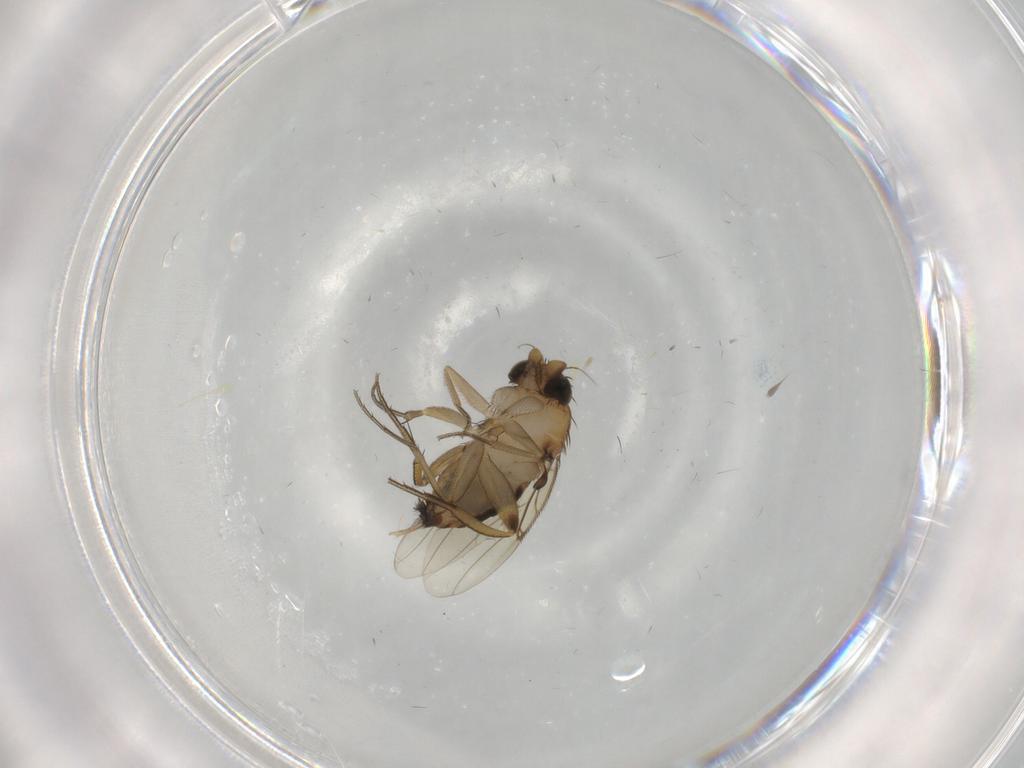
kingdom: Animalia
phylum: Arthropoda
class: Insecta
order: Diptera
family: Phoridae
